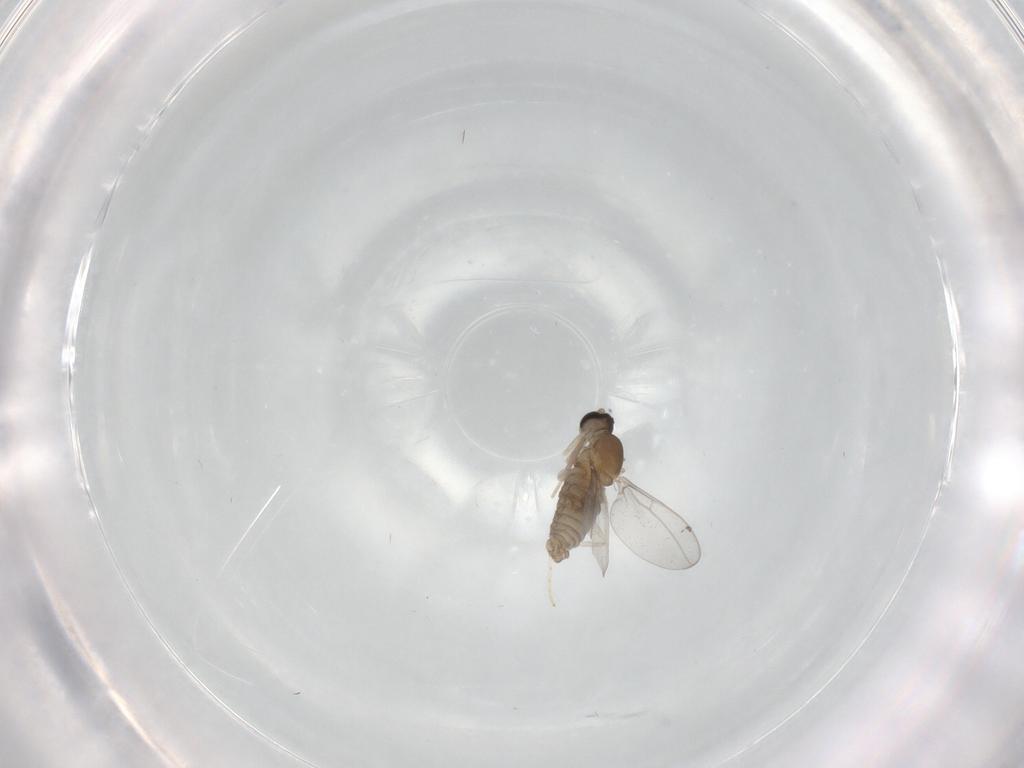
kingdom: Animalia
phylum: Arthropoda
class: Insecta
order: Diptera
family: Cecidomyiidae
